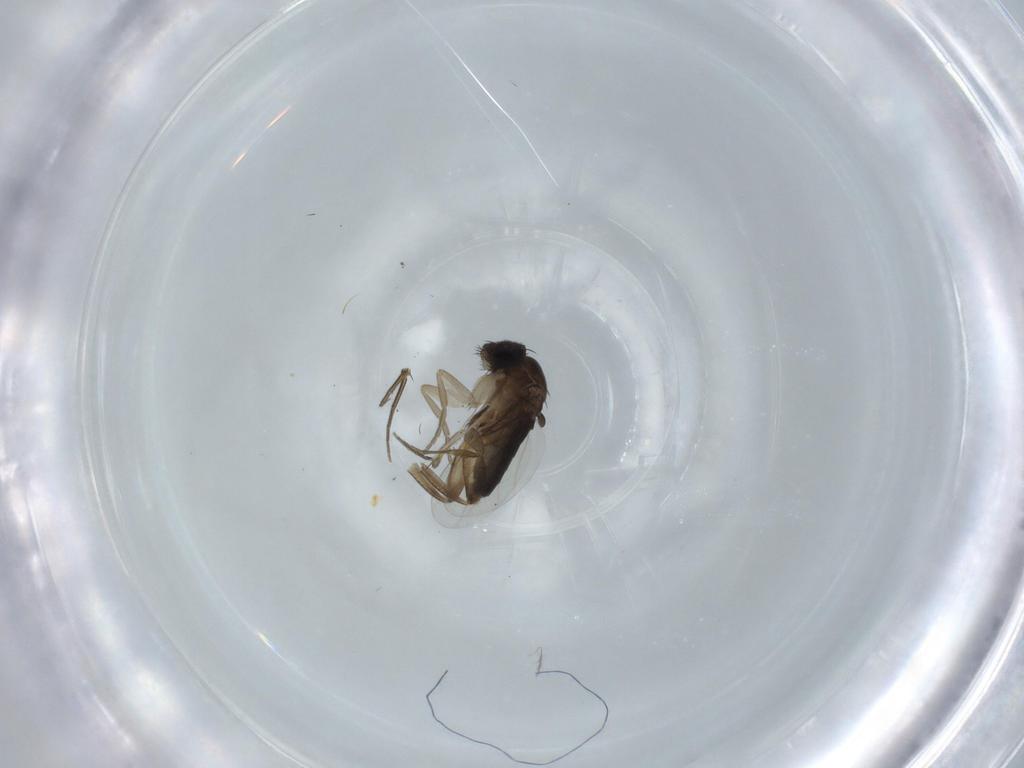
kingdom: Animalia
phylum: Arthropoda
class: Insecta
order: Diptera
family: Phoridae
